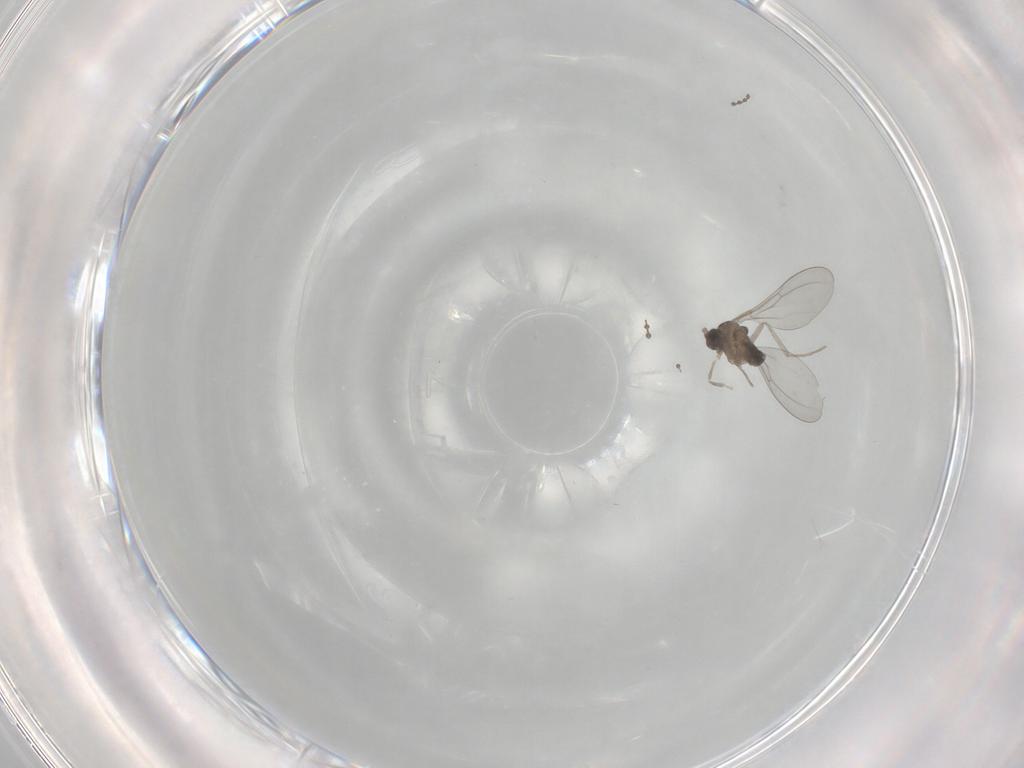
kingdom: Animalia
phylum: Arthropoda
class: Insecta
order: Diptera
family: Cecidomyiidae
